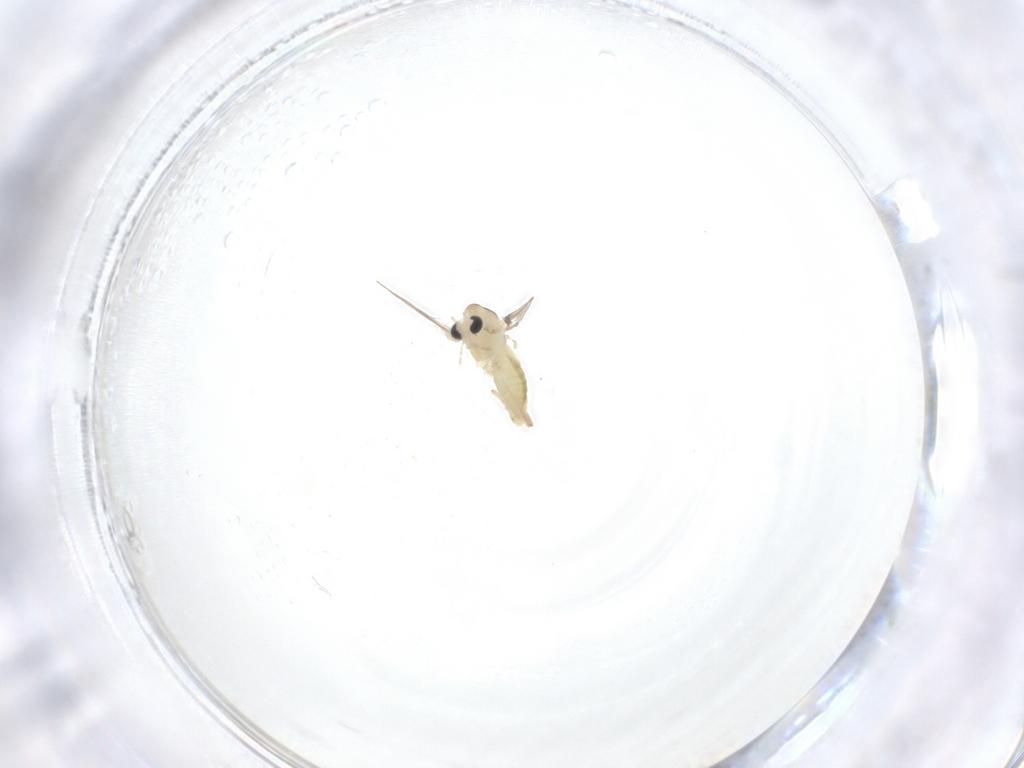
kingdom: Animalia
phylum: Arthropoda
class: Insecta
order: Diptera
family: Chironomidae
